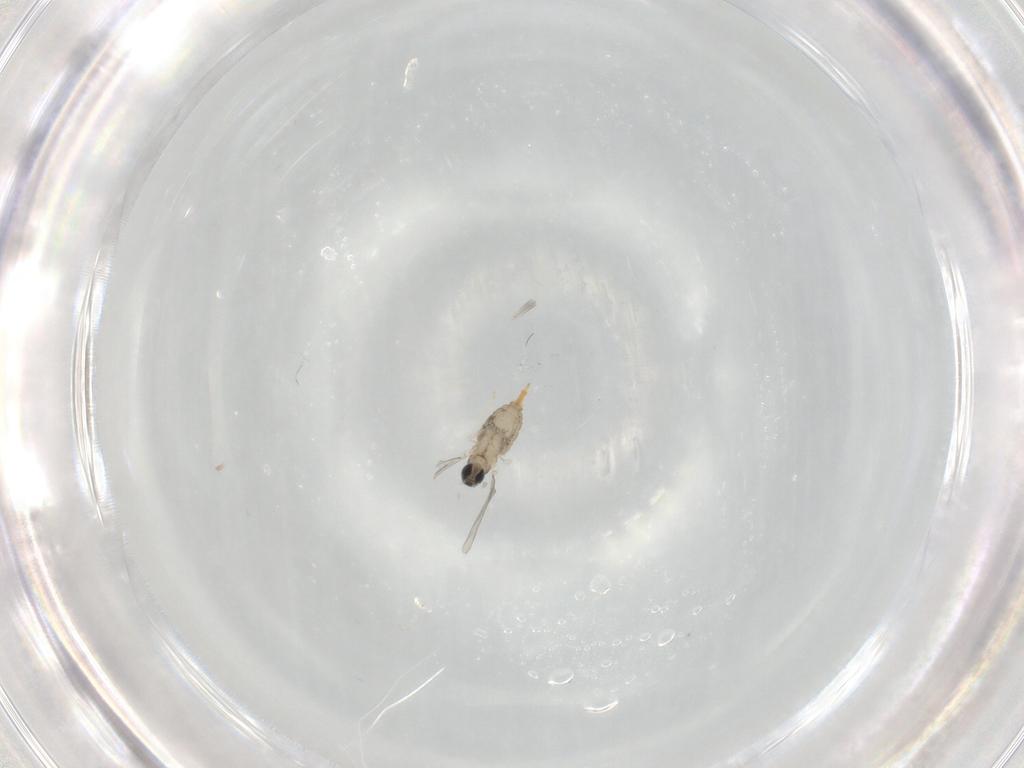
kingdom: Animalia
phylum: Arthropoda
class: Insecta
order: Diptera
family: Cecidomyiidae
